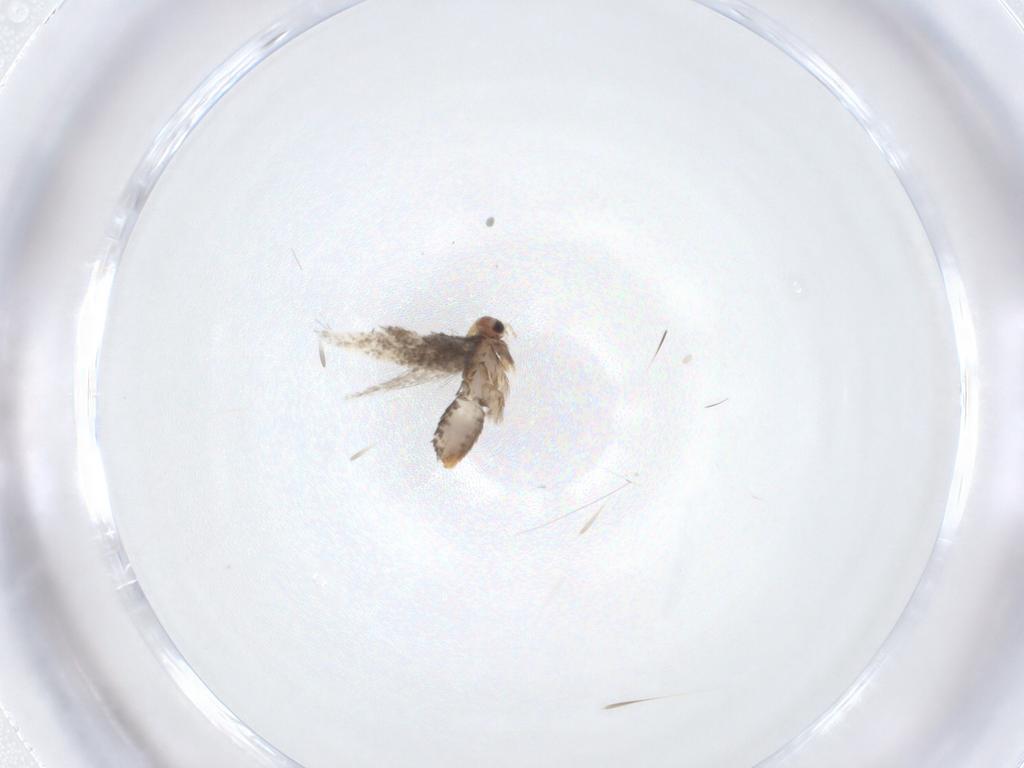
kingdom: Animalia
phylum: Arthropoda
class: Insecta
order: Lepidoptera
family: Nepticulidae
